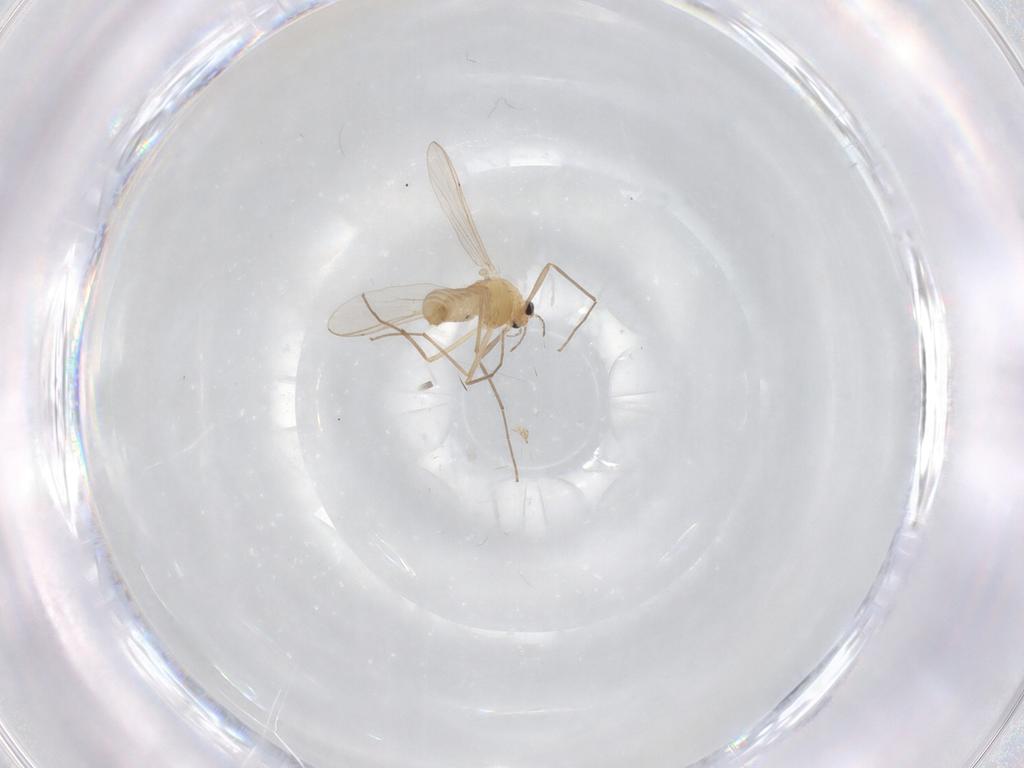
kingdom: Animalia
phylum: Arthropoda
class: Insecta
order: Diptera
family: Chironomidae
